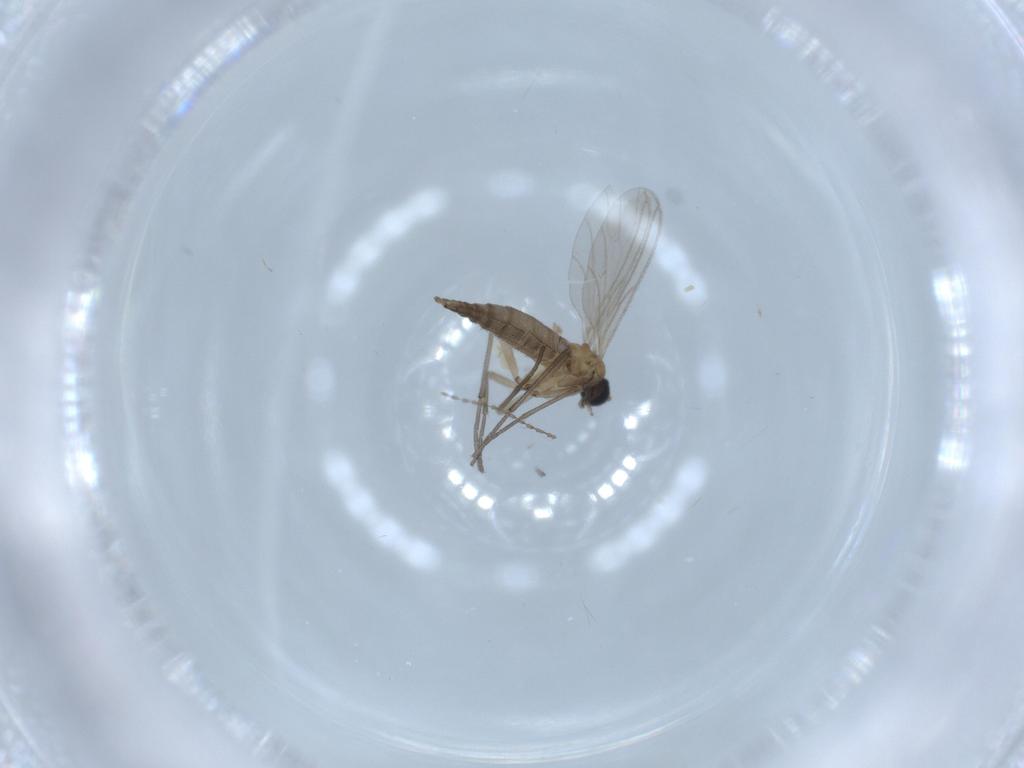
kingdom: Animalia
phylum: Arthropoda
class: Insecta
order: Diptera
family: Sciaridae
